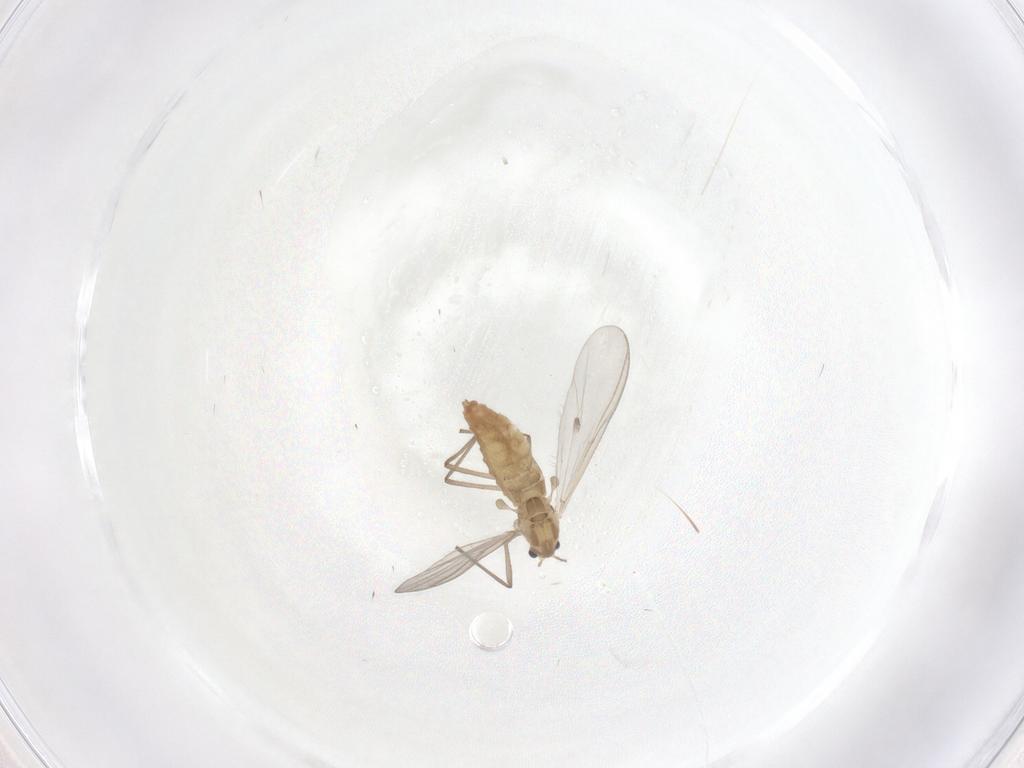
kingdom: Animalia
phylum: Arthropoda
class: Insecta
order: Diptera
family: Chironomidae
